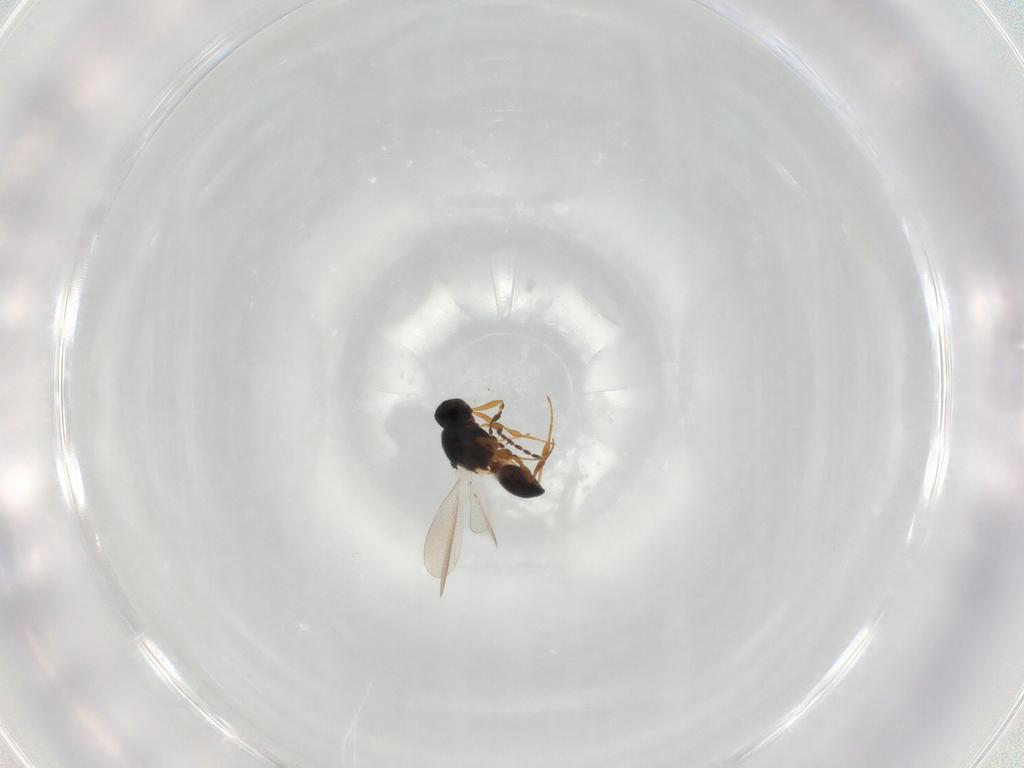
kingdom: Animalia
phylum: Arthropoda
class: Insecta
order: Hymenoptera
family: Platygastridae
